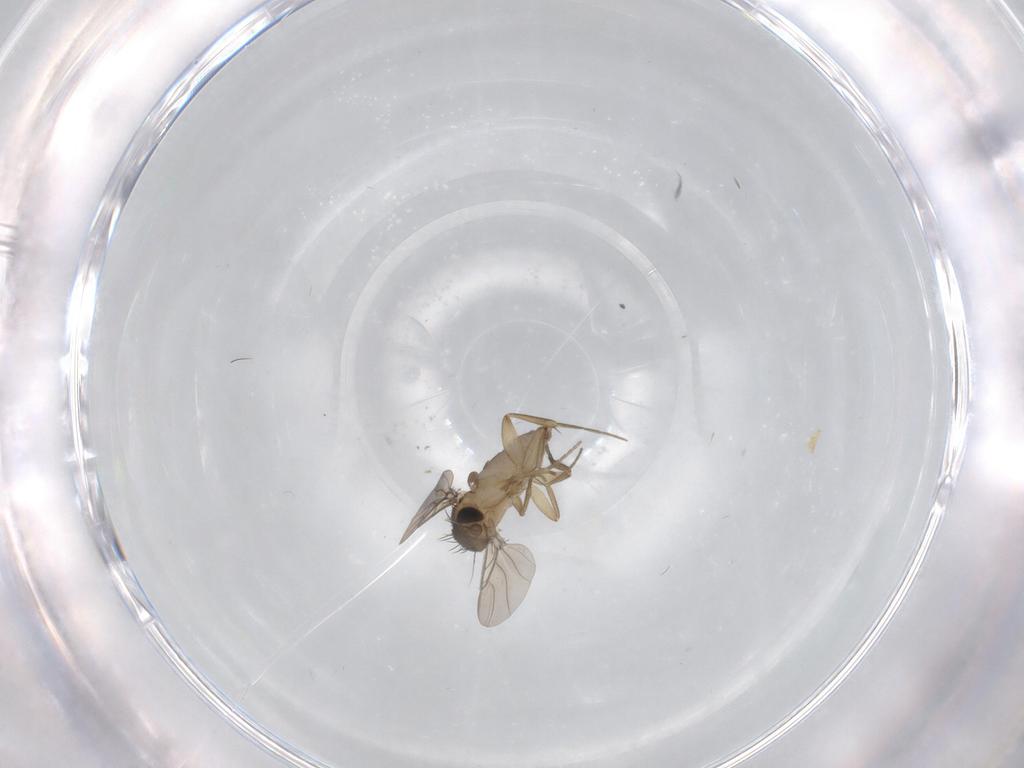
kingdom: Animalia
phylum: Arthropoda
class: Insecta
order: Diptera
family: Phoridae
